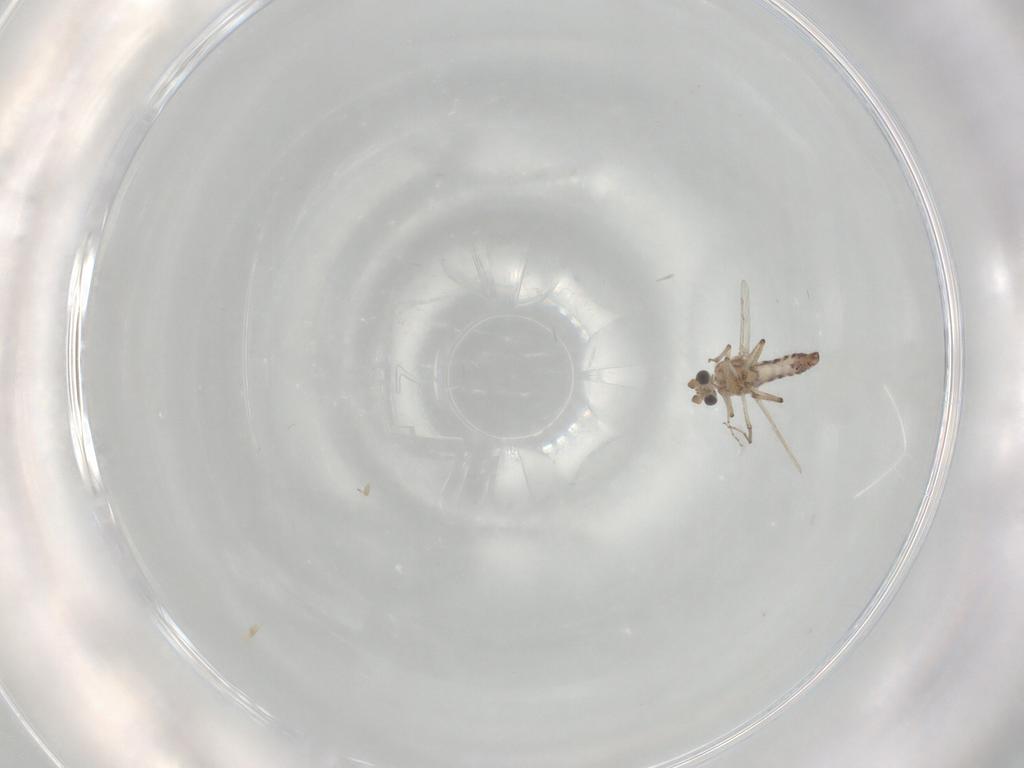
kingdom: Animalia
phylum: Arthropoda
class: Insecta
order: Diptera
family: Ceratopogonidae
